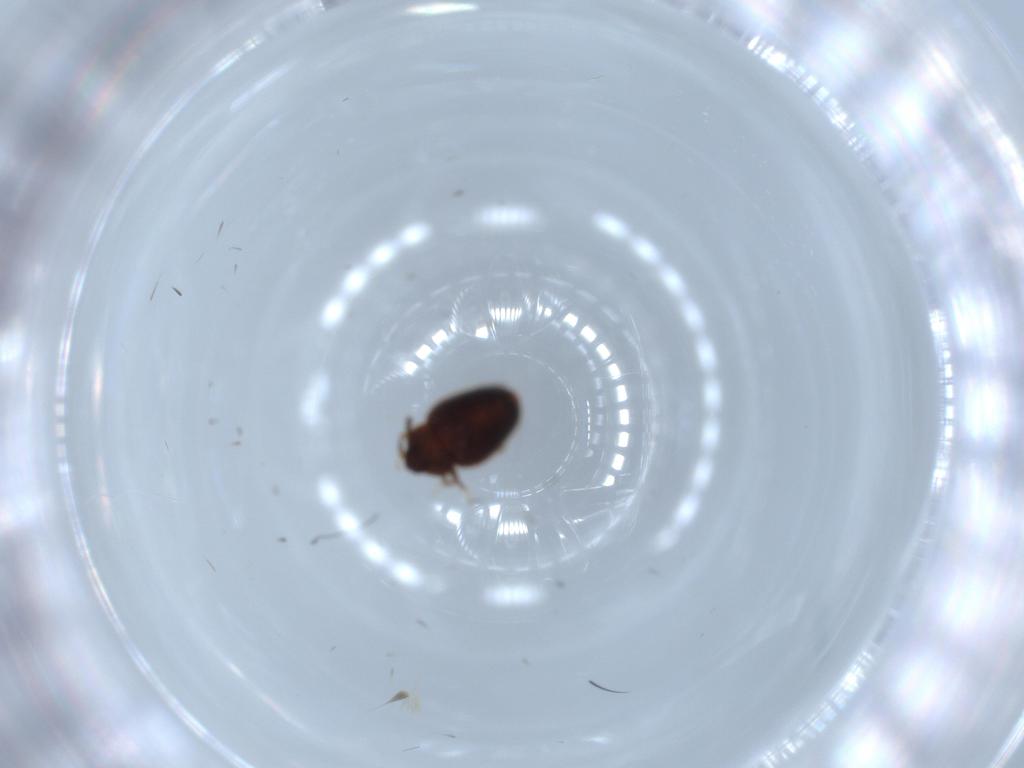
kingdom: Animalia
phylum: Arthropoda
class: Insecta
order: Coleoptera
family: Corylophidae
